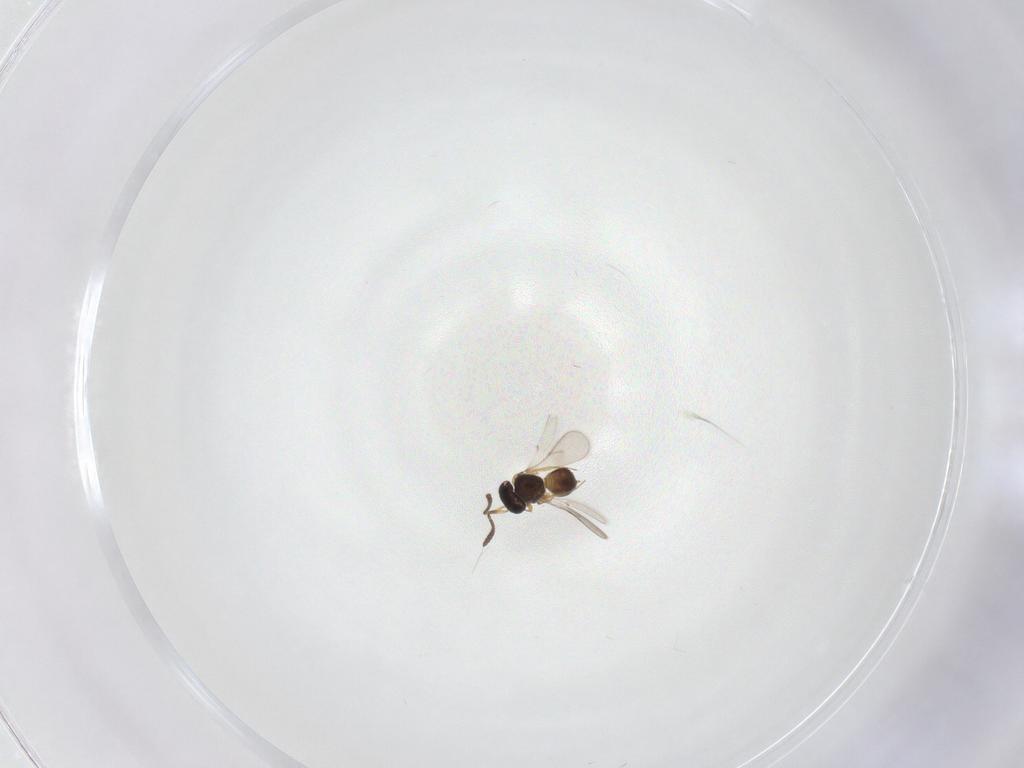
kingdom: Animalia
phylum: Arthropoda
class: Insecta
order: Hymenoptera
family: Scelionidae
